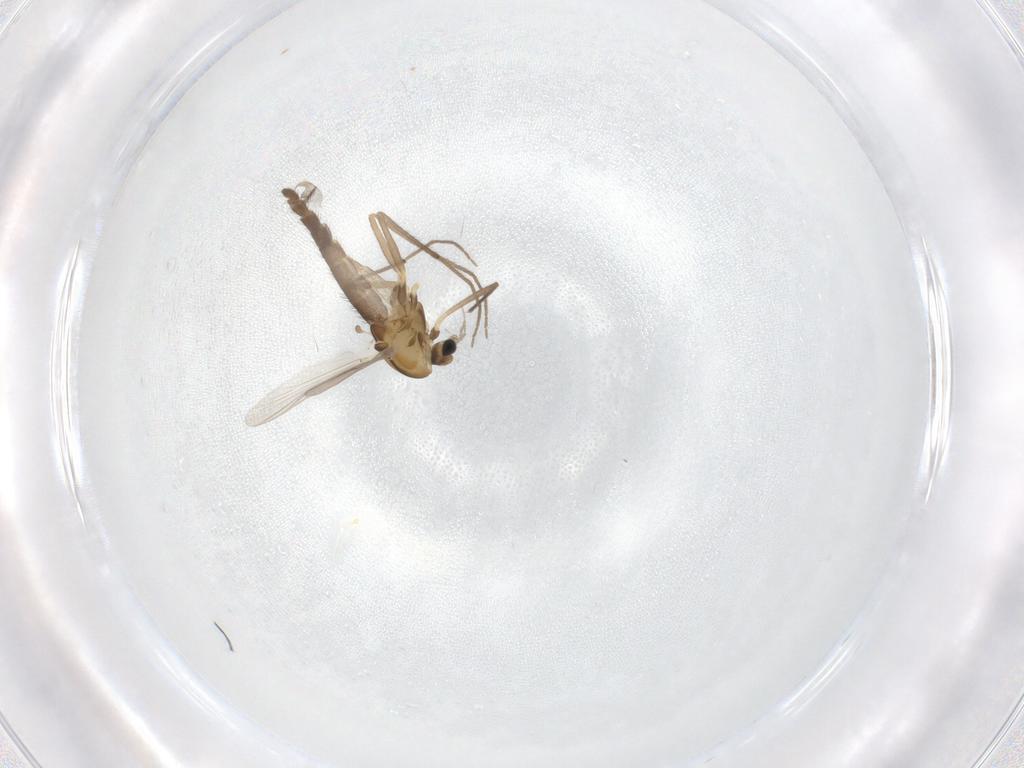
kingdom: Animalia
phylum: Arthropoda
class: Insecta
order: Diptera
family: Chironomidae
